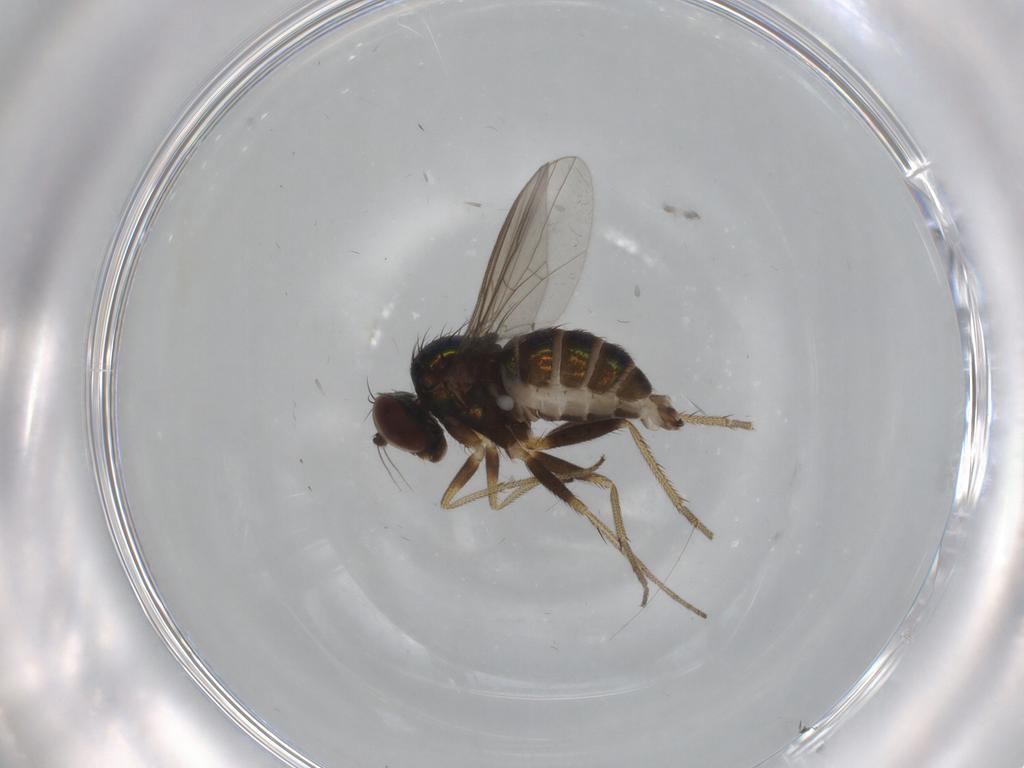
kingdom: Animalia
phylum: Arthropoda
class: Insecta
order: Diptera
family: Dolichopodidae
